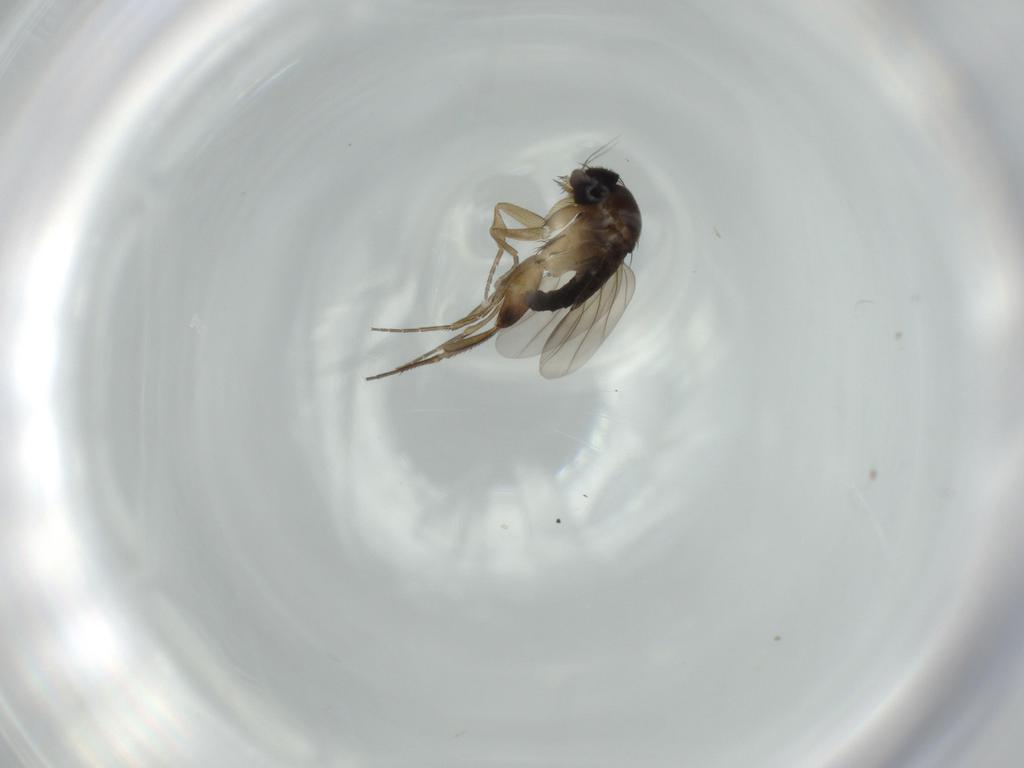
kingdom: Animalia
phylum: Arthropoda
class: Insecta
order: Diptera
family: Phoridae
